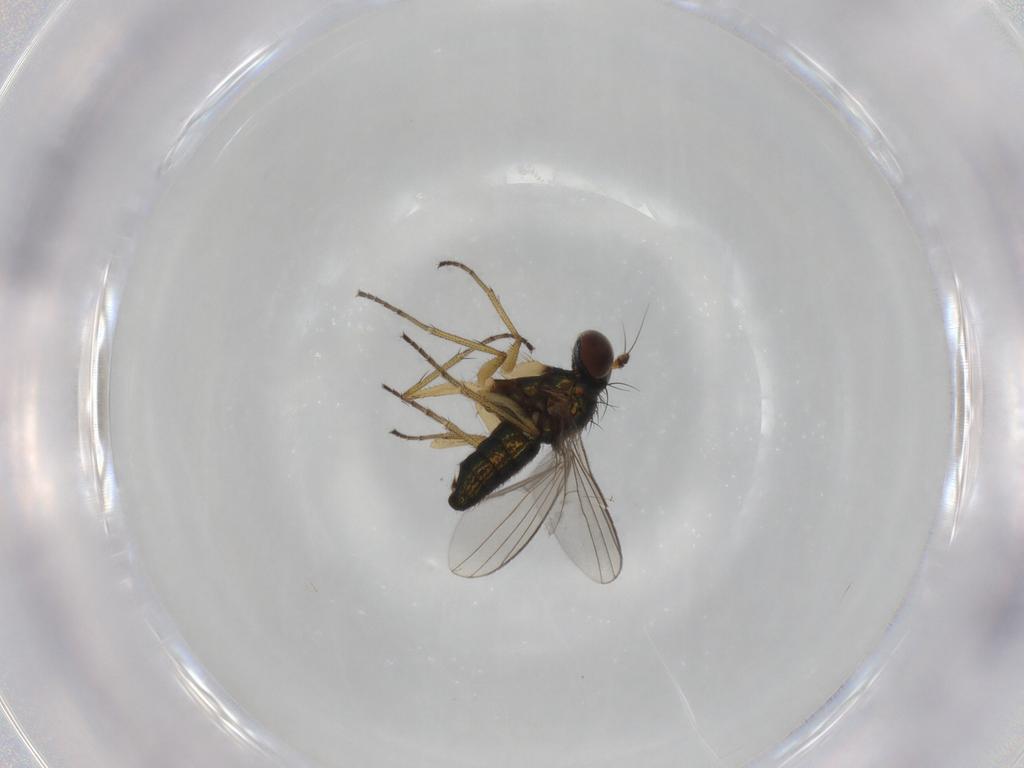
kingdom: Animalia
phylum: Arthropoda
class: Insecta
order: Diptera
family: Dolichopodidae
